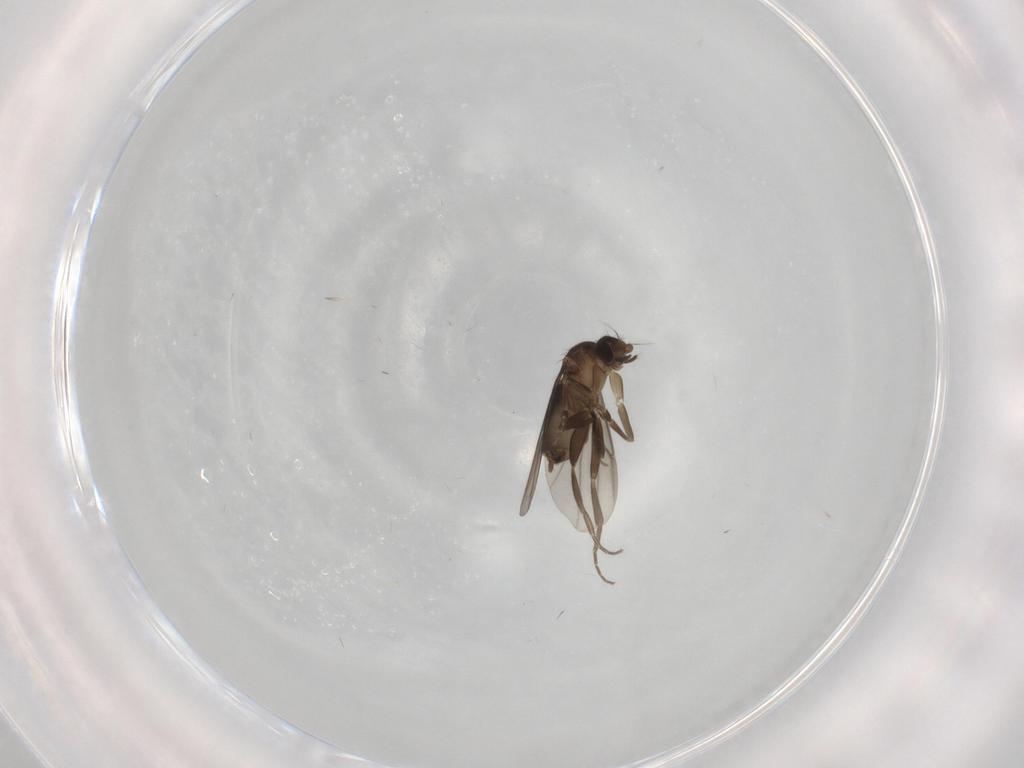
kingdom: Animalia
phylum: Arthropoda
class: Insecta
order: Diptera
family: Phoridae
